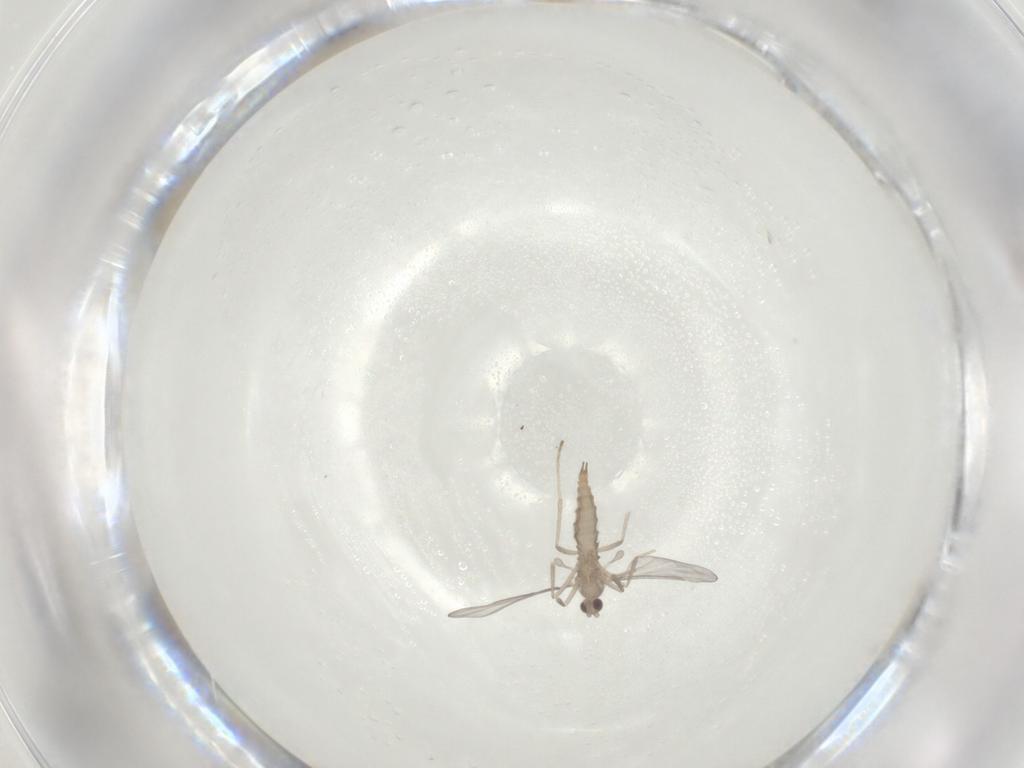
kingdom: Animalia
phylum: Arthropoda
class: Insecta
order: Diptera
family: Cecidomyiidae
